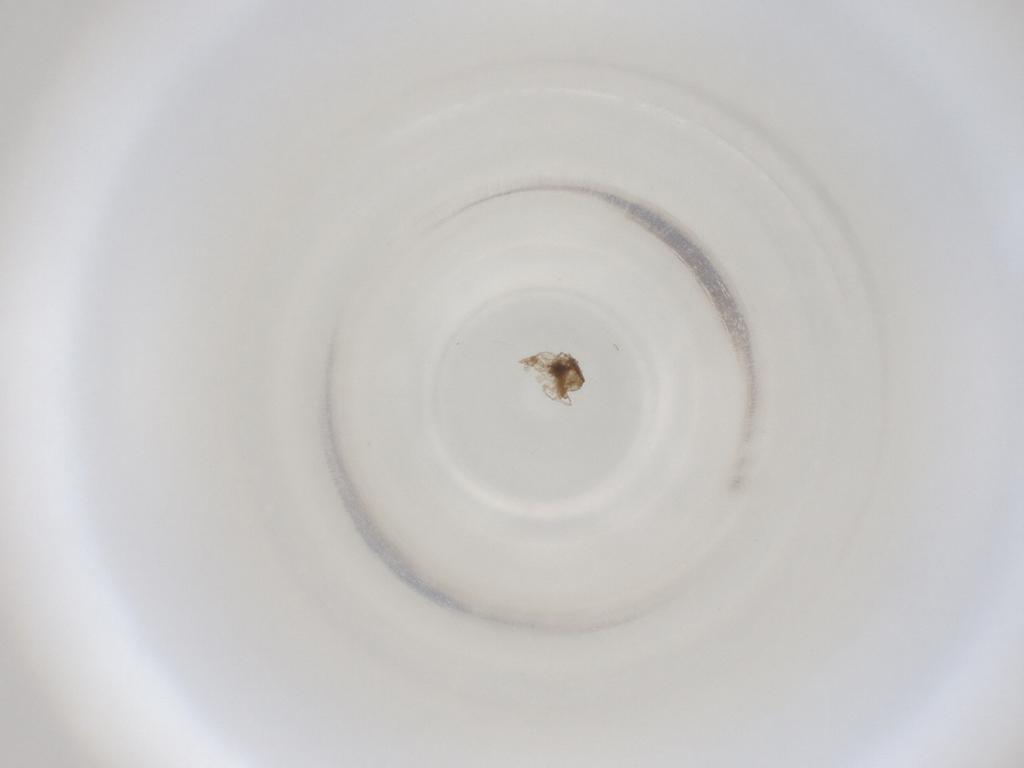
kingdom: Animalia
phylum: Arthropoda
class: Insecta
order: Diptera
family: Cecidomyiidae
